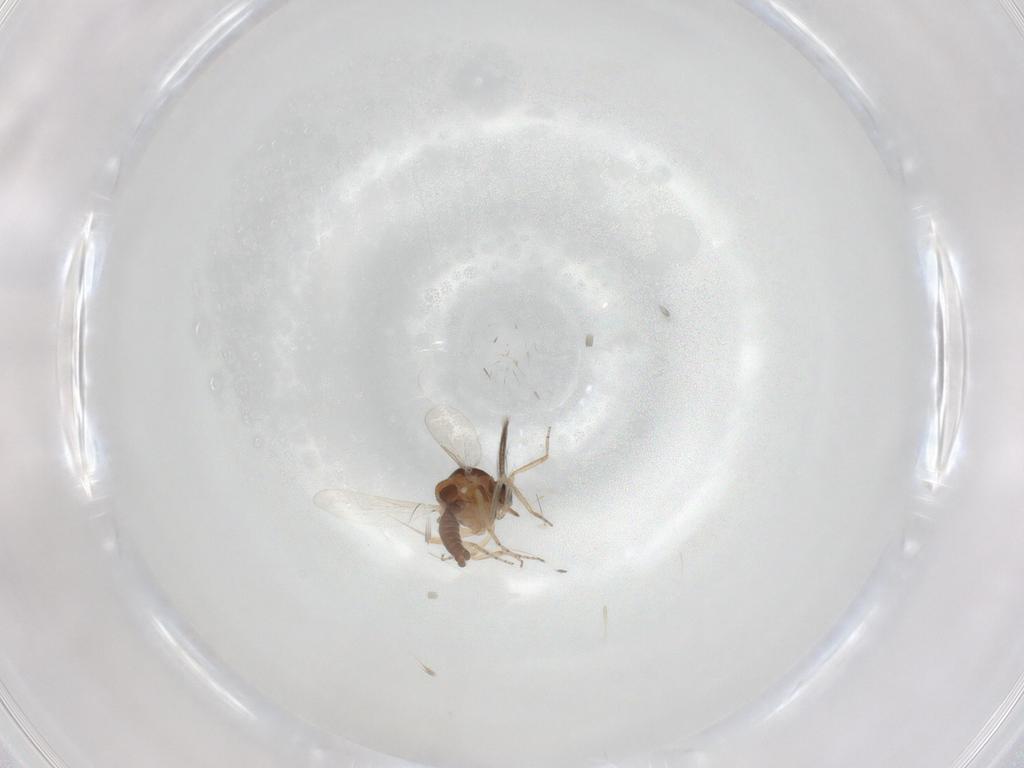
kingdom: Animalia
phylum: Arthropoda
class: Insecta
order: Diptera
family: Ceratopogonidae
